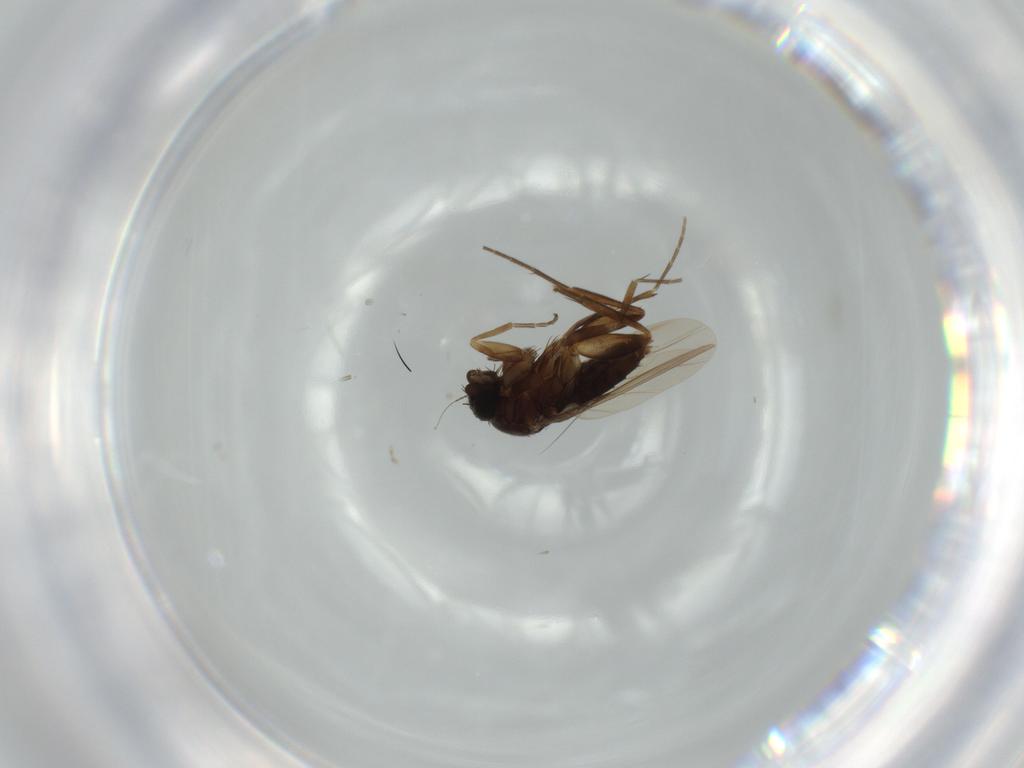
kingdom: Animalia
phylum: Arthropoda
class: Insecta
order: Diptera
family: Phoridae
